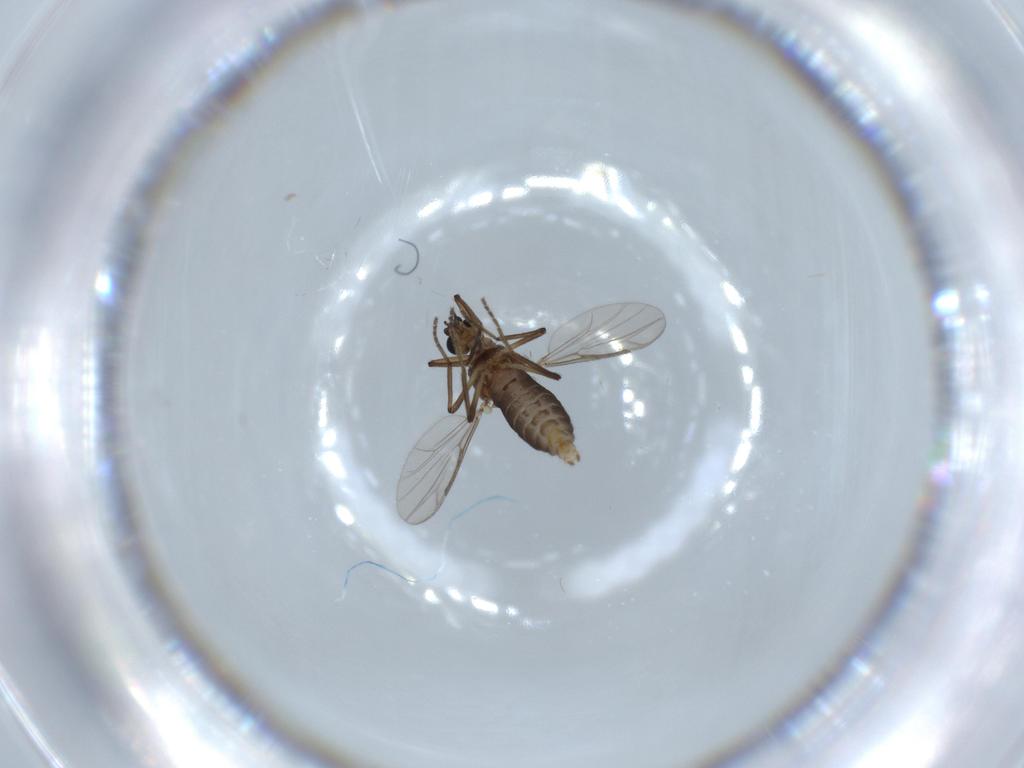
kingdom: Animalia
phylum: Arthropoda
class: Insecta
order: Diptera
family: Ceratopogonidae
